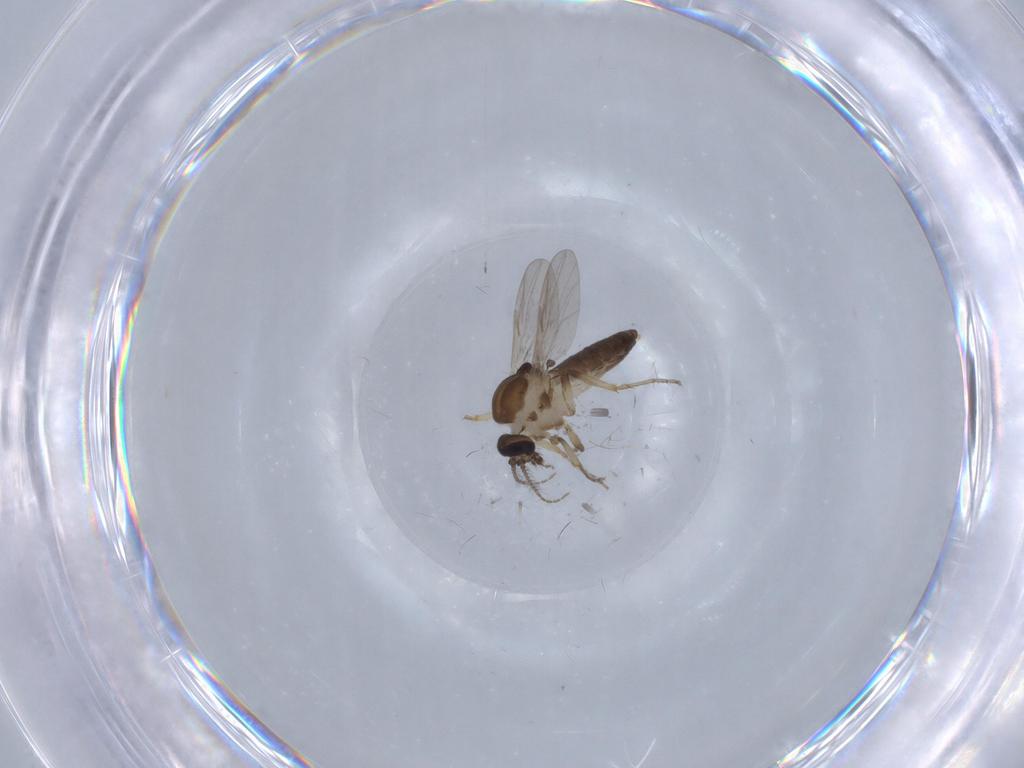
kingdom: Animalia
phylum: Arthropoda
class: Insecta
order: Diptera
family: Ceratopogonidae
